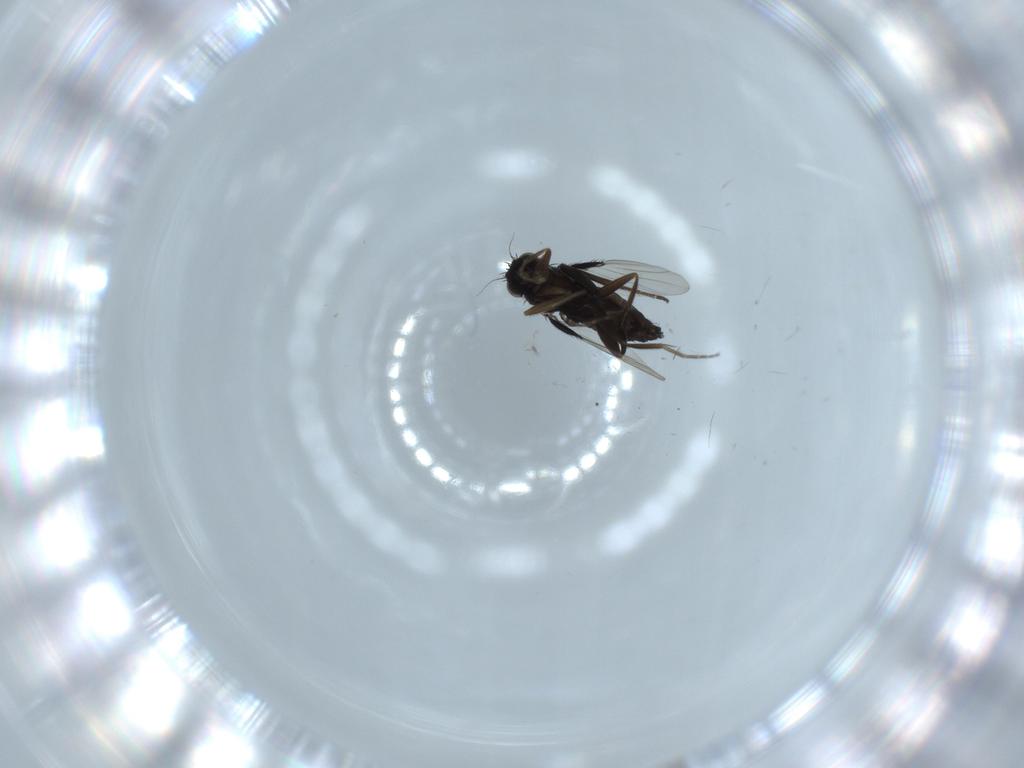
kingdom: Animalia
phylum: Arthropoda
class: Insecta
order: Diptera
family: Phoridae
